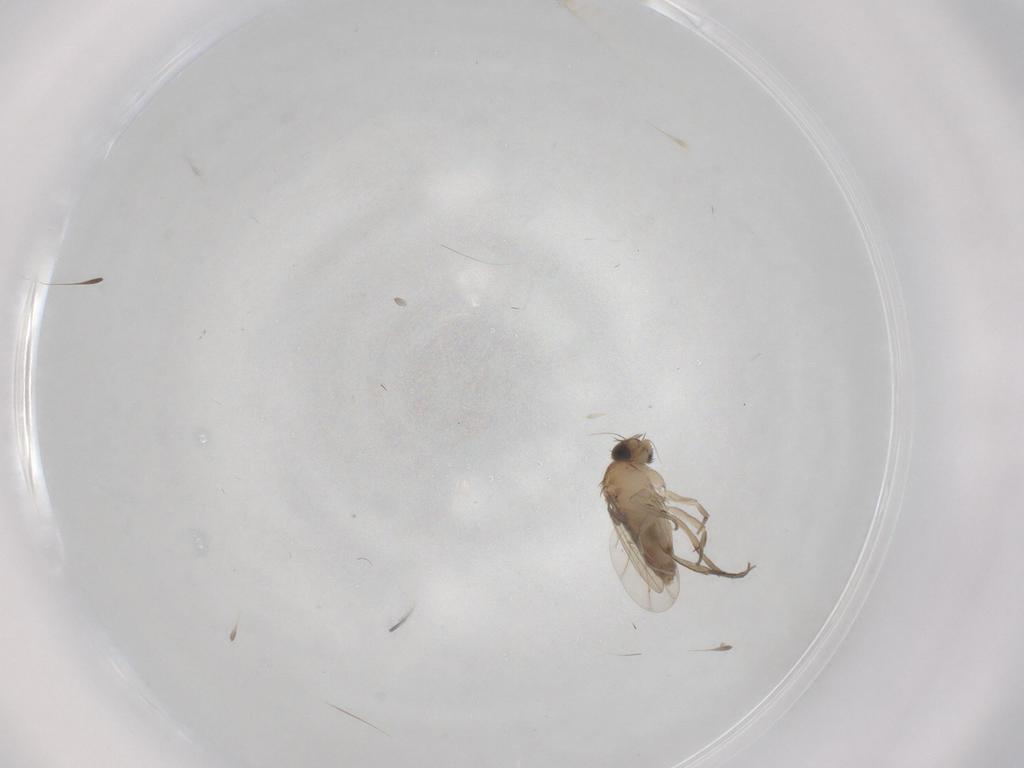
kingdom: Animalia
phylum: Arthropoda
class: Insecta
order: Diptera
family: Phoridae
